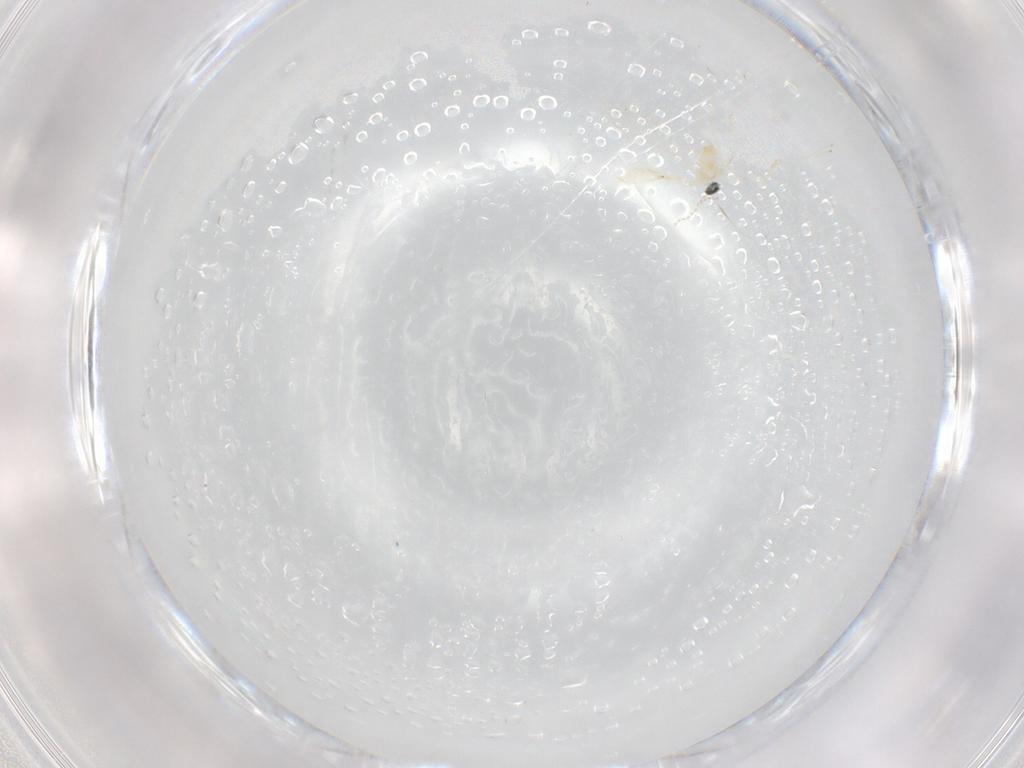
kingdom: Animalia
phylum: Arthropoda
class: Insecta
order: Diptera
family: Cecidomyiidae
